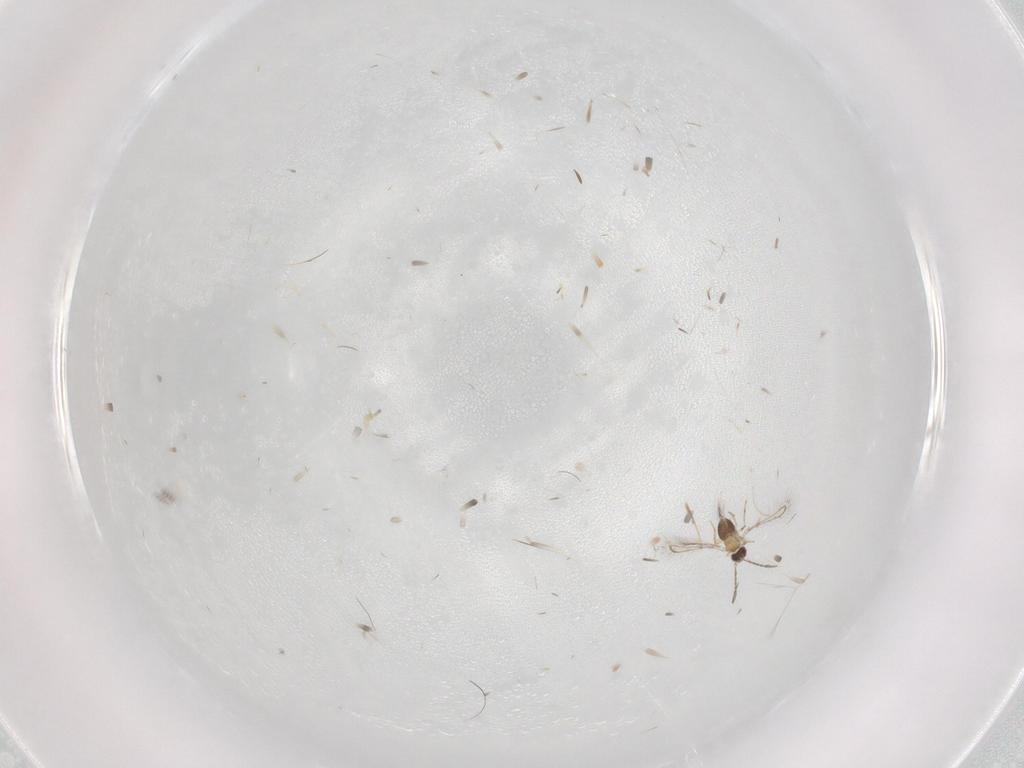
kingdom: Animalia
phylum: Arthropoda
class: Insecta
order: Hymenoptera
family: Mymaridae
